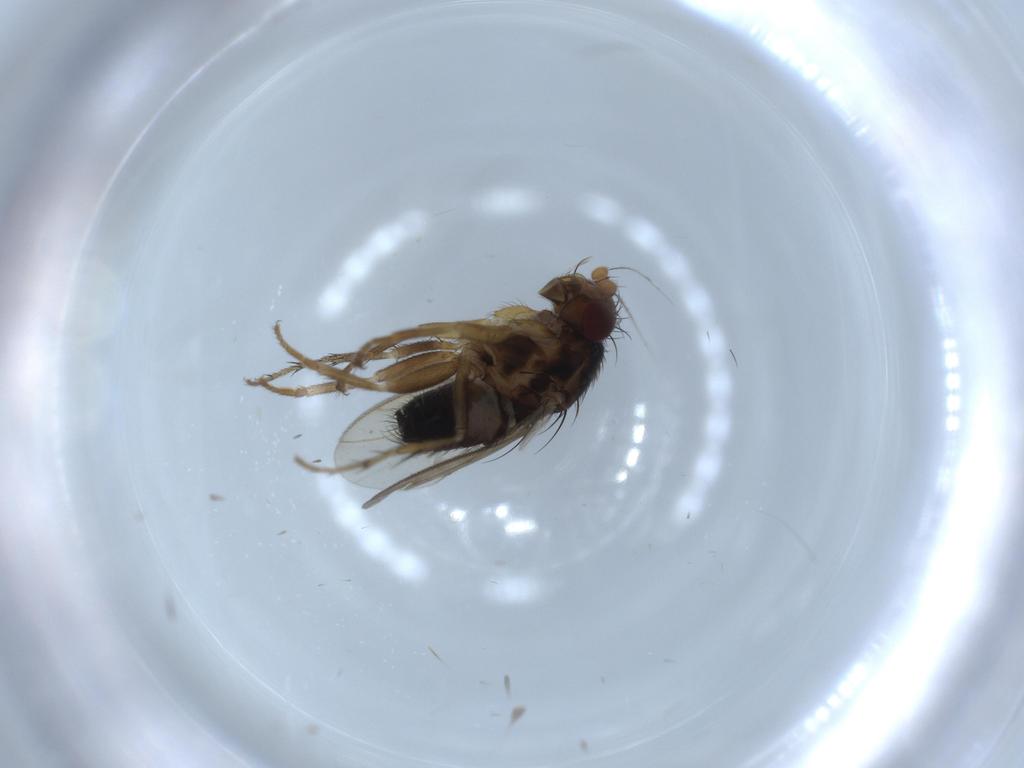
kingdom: Animalia
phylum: Arthropoda
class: Insecta
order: Diptera
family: Sphaeroceridae
